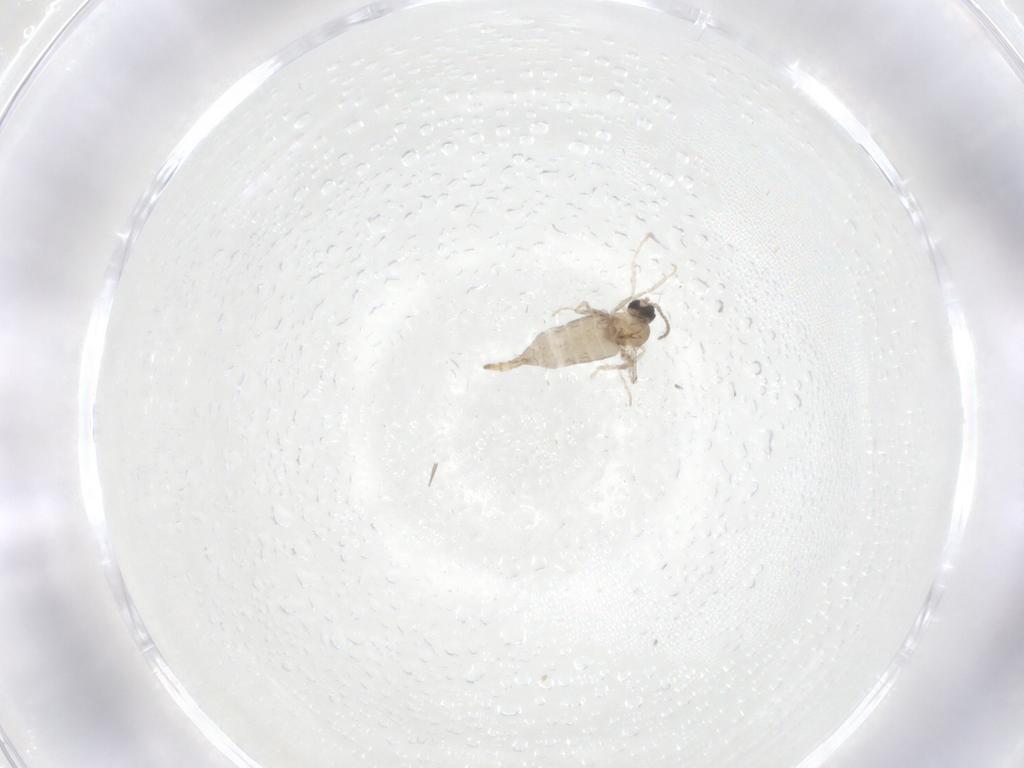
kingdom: Animalia
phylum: Arthropoda
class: Insecta
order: Diptera
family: Cecidomyiidae
